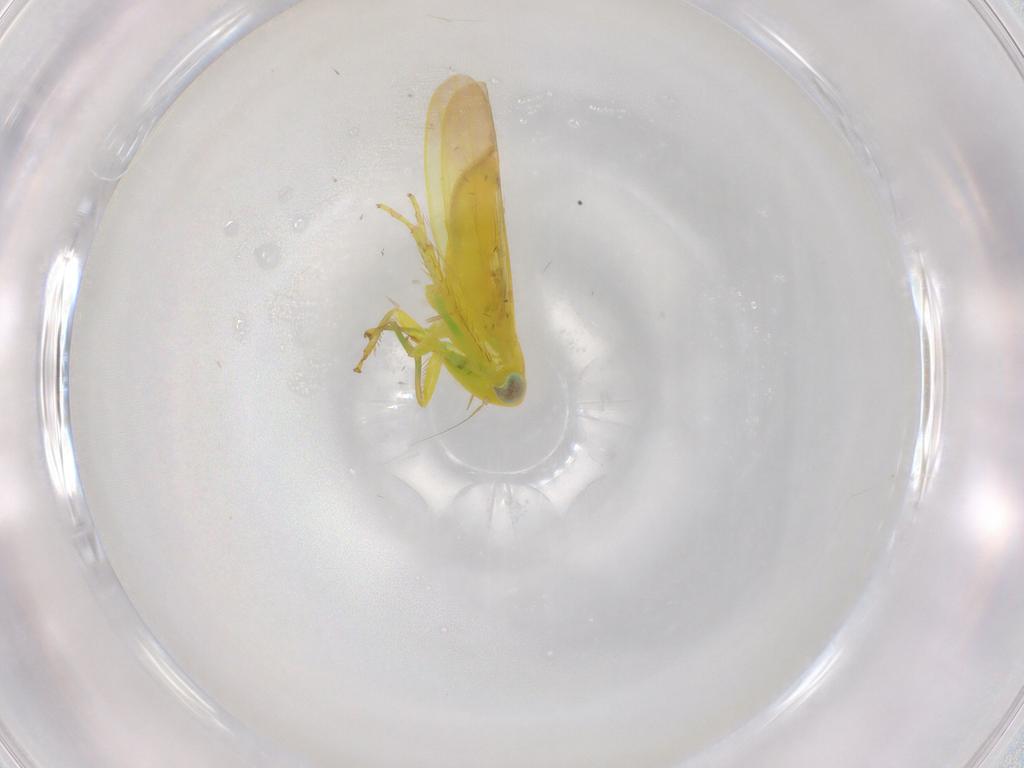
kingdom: Animalia
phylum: Arthropoda
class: Insecta
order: Hemiptera
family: Cicadellidae
